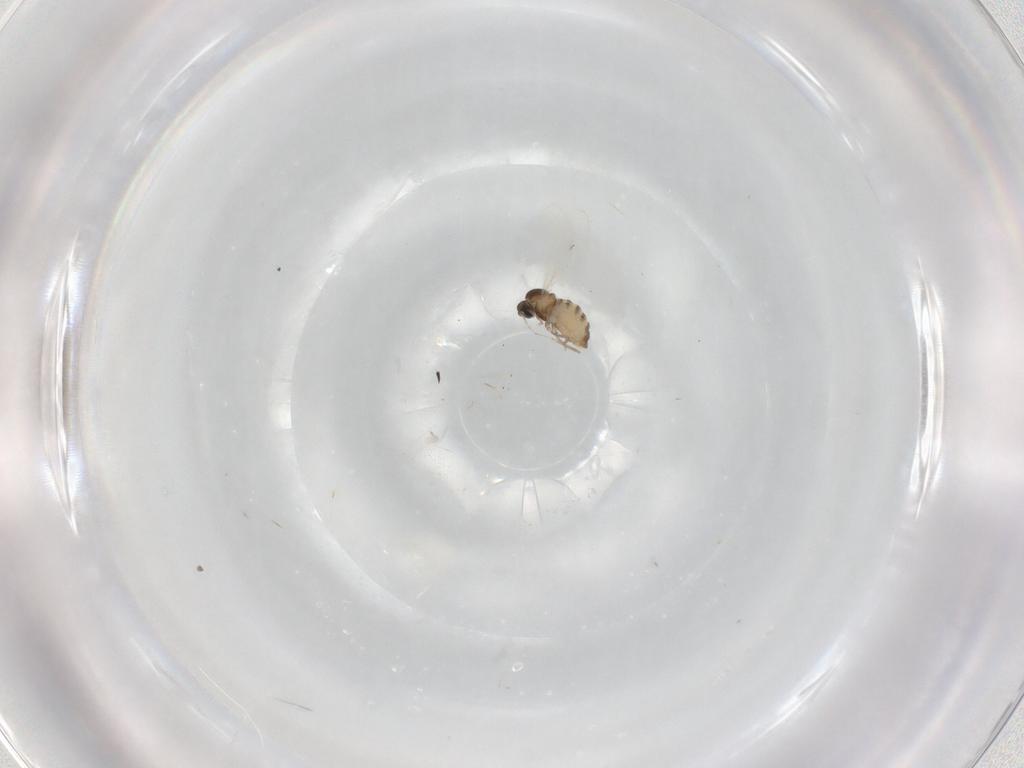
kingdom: Animalia
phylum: Arthropoda
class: Insecta
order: Diptera
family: Cecidomyiidae
